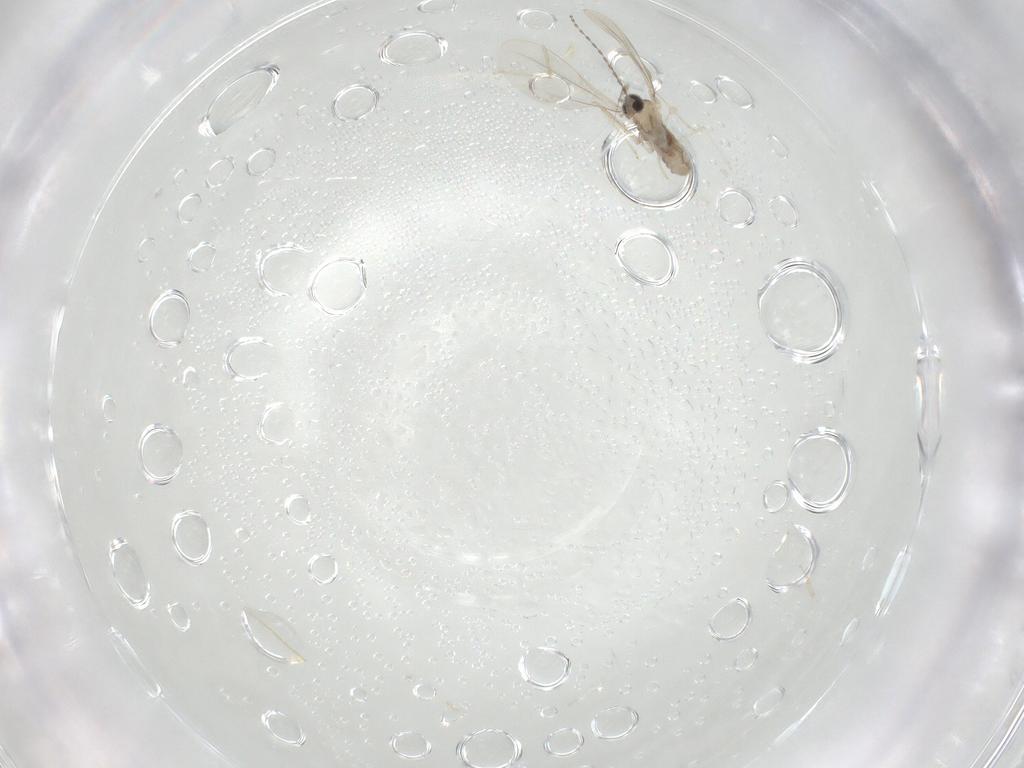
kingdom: Animalia
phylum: Arthropoda
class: Insecta
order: Diptera
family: Cecidomyiidae
